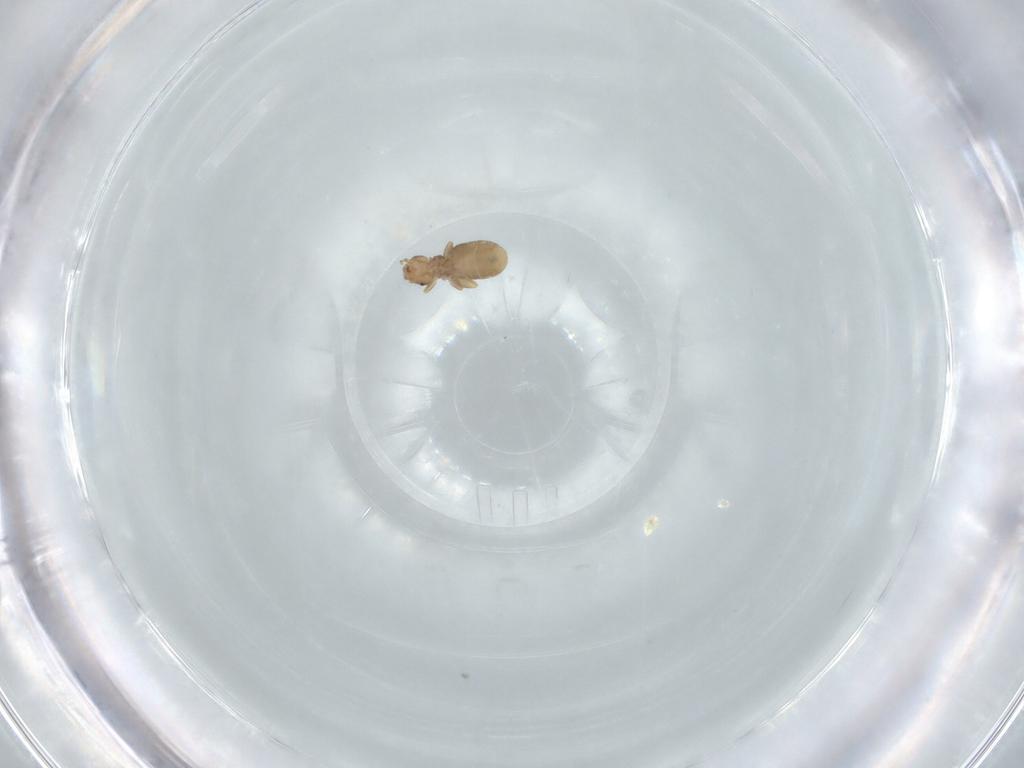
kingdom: Animalia
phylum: Arthropoda
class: Insecta
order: Psocodea
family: Liposcelididae
